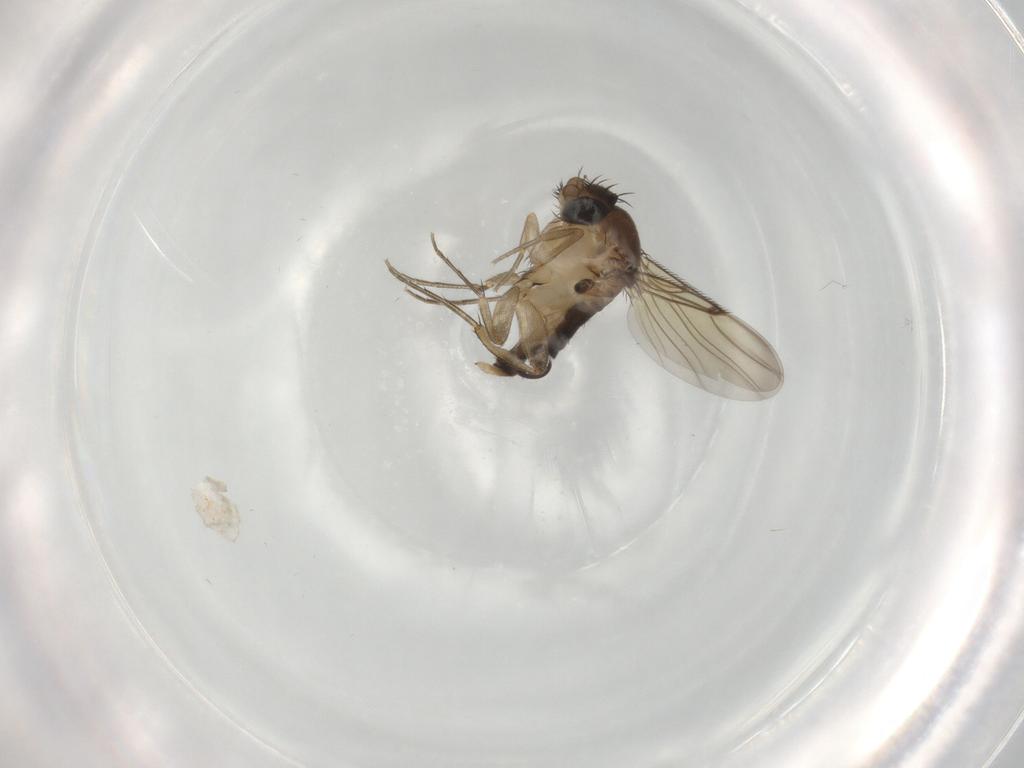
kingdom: Animalia
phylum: Arthropoda
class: Insecta
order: Diptera
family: Phoridae
